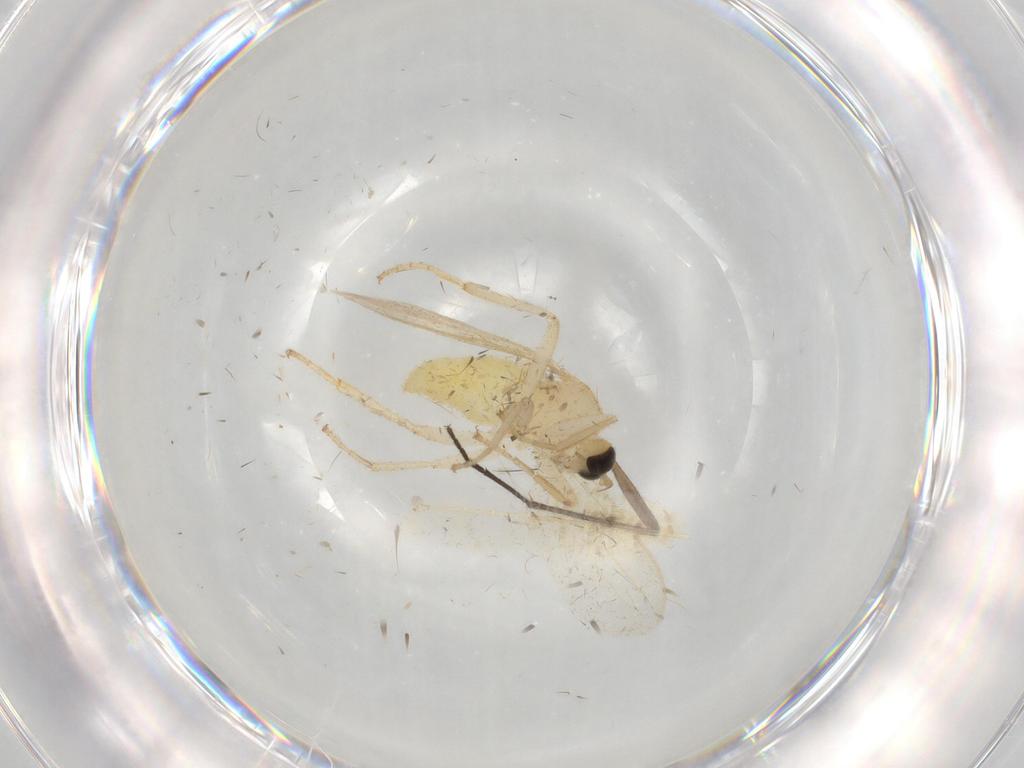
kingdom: Animalia
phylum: Arthropoda
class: Insecta
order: Diptera
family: Hybotidae
